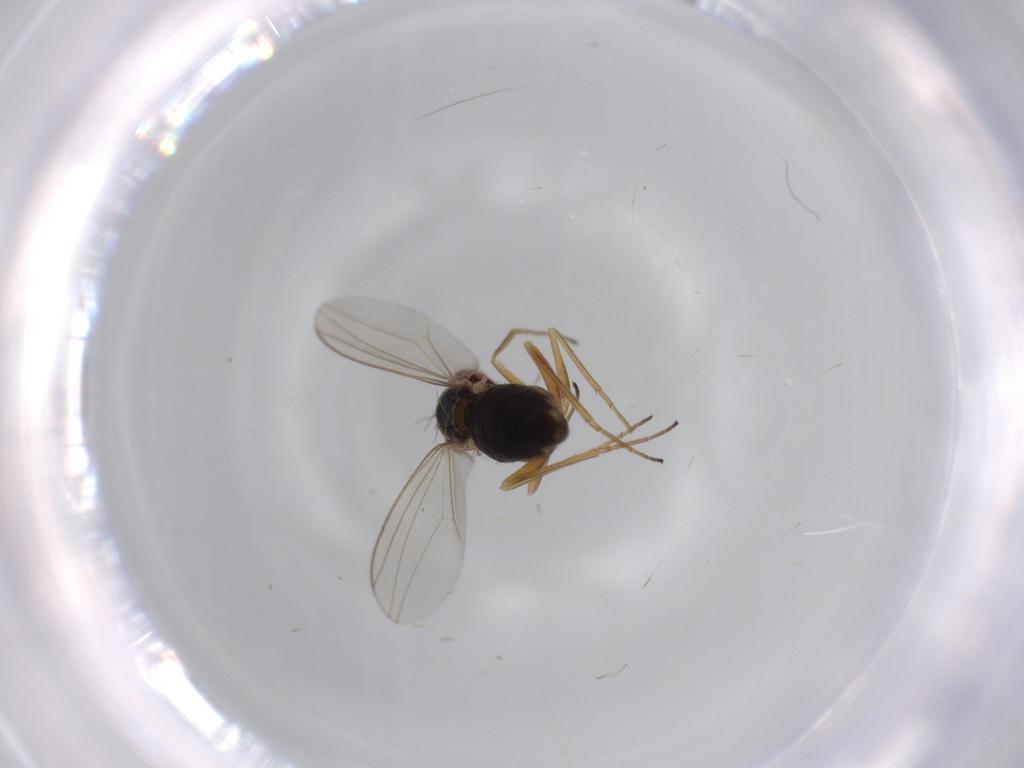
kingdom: Animalia
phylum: Arthropoda
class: Insecta
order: Diptera
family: Dolichopodidae
